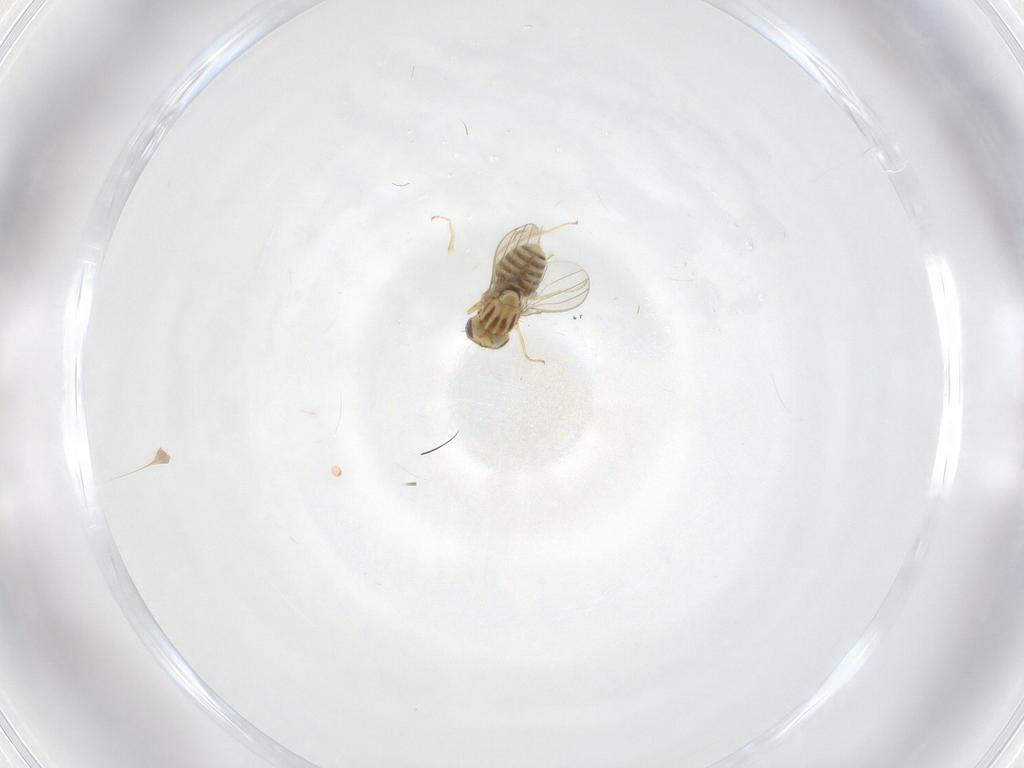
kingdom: Animalia
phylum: Arthropoda
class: Insecta
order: Diptera
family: Chyromyidae
